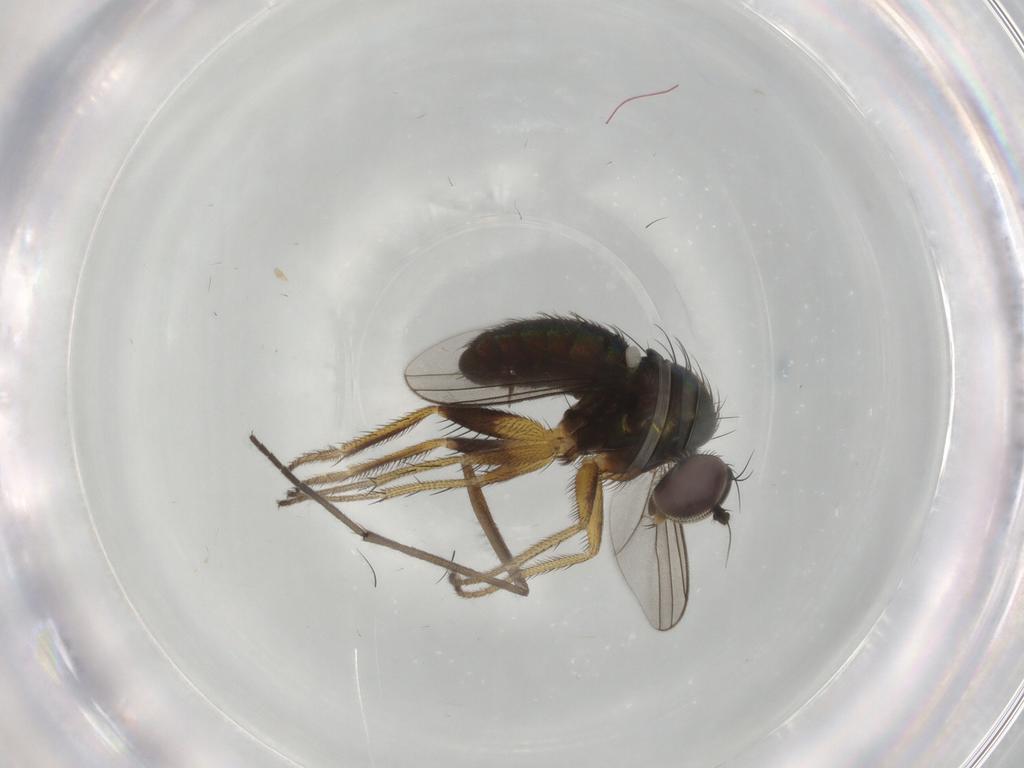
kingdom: Animalia
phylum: Arthropoda
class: Insecta
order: Diptera
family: Dolichopodidae
